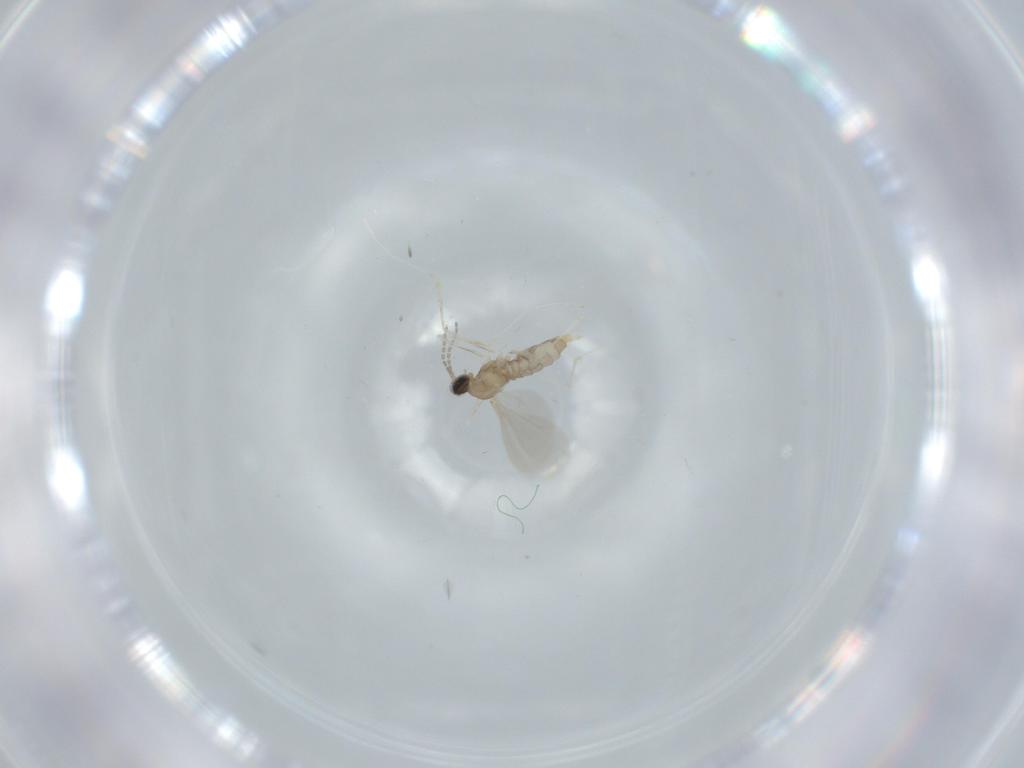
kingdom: Animalia
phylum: Arthropoda
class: Insecta
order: Diptera
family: Cecidomyiidae
